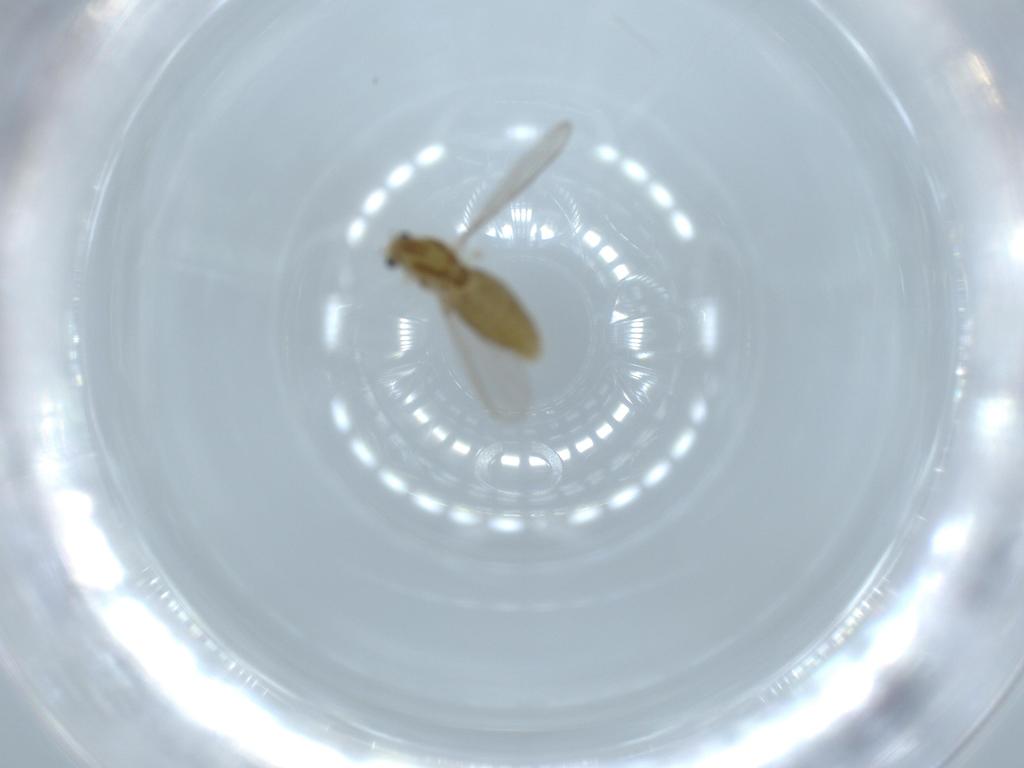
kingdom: Animalia
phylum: Arthropoda
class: Insecta
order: Diptera
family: Chironomidae
